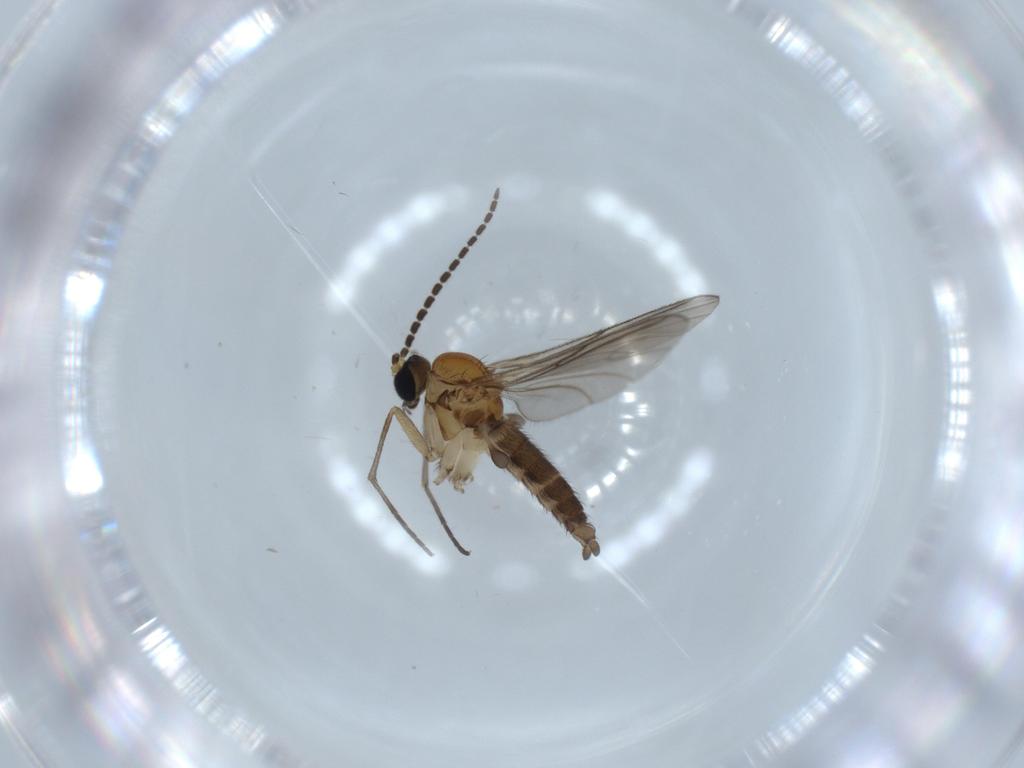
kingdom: Animalia
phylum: Arthropoda
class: Insecta
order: Diptera
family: Sciaridae
